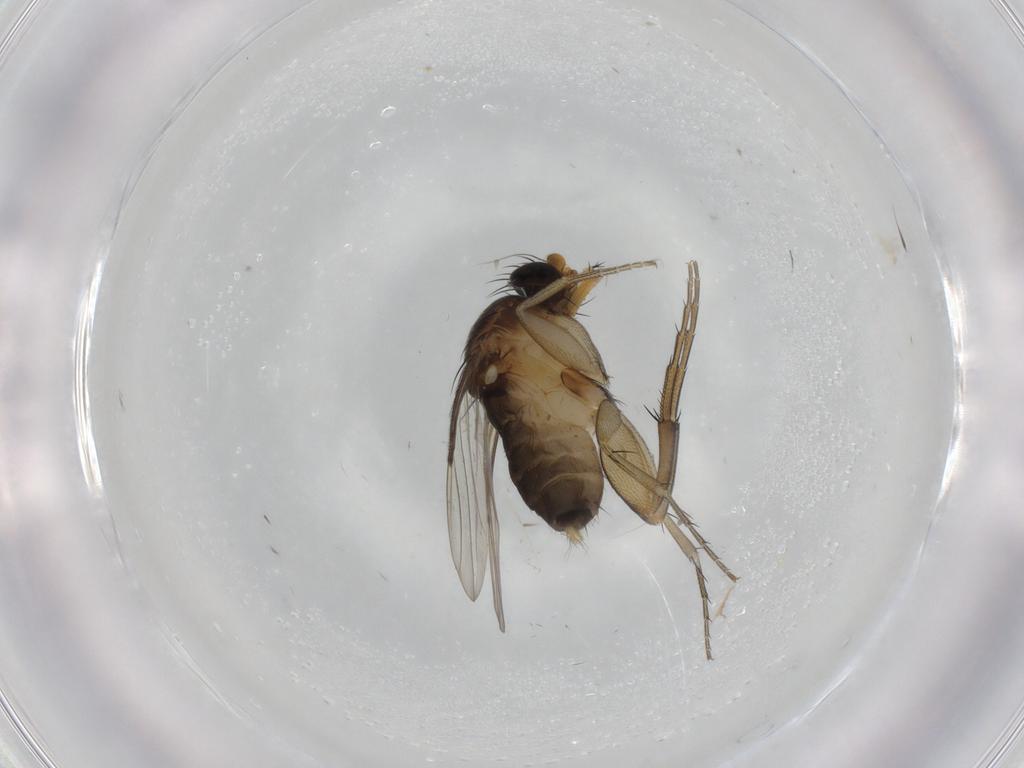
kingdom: Animalia
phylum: Arthropoda
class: Insecta
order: Diptera
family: Phoridae
